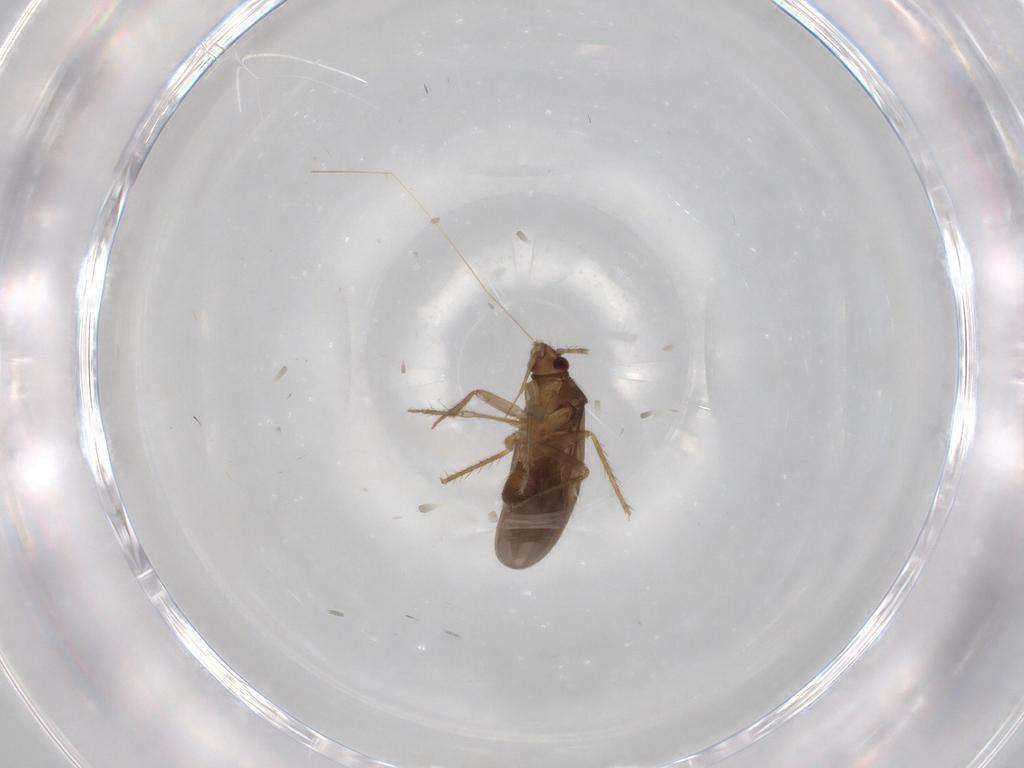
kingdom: Animalia
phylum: Arthropoda
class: Insecta
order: Hemiptera
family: Ceratocombidae
